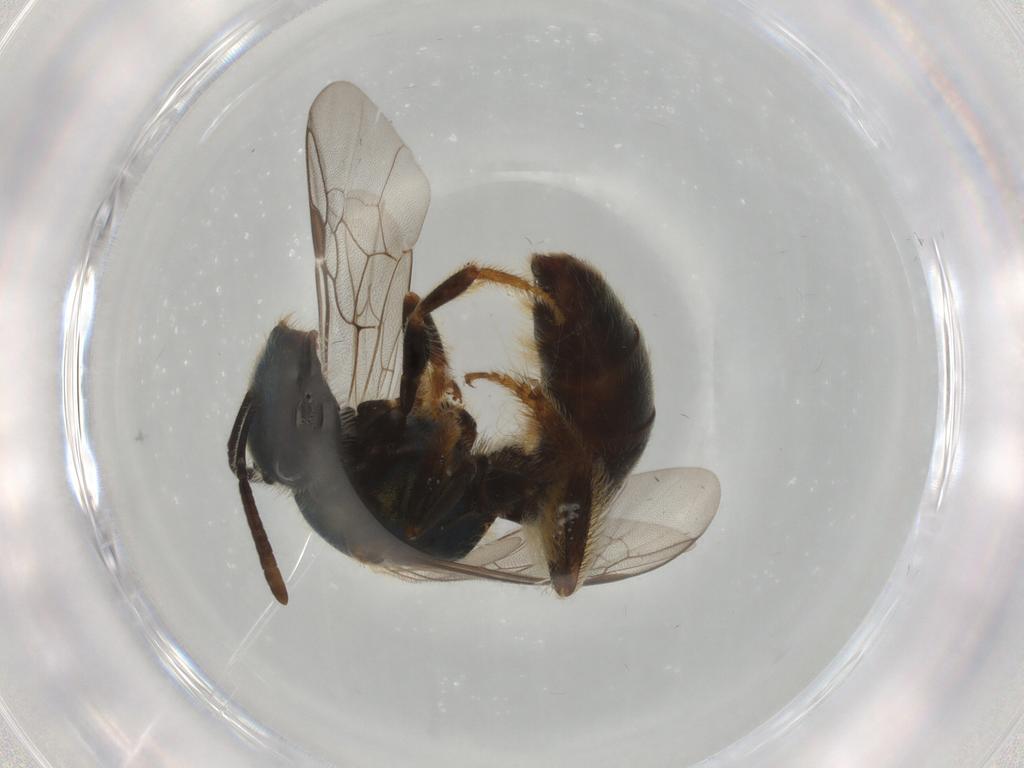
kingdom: Animalia
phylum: Arthropoda
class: Insecta
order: Hymenoptera
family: Halictidae
